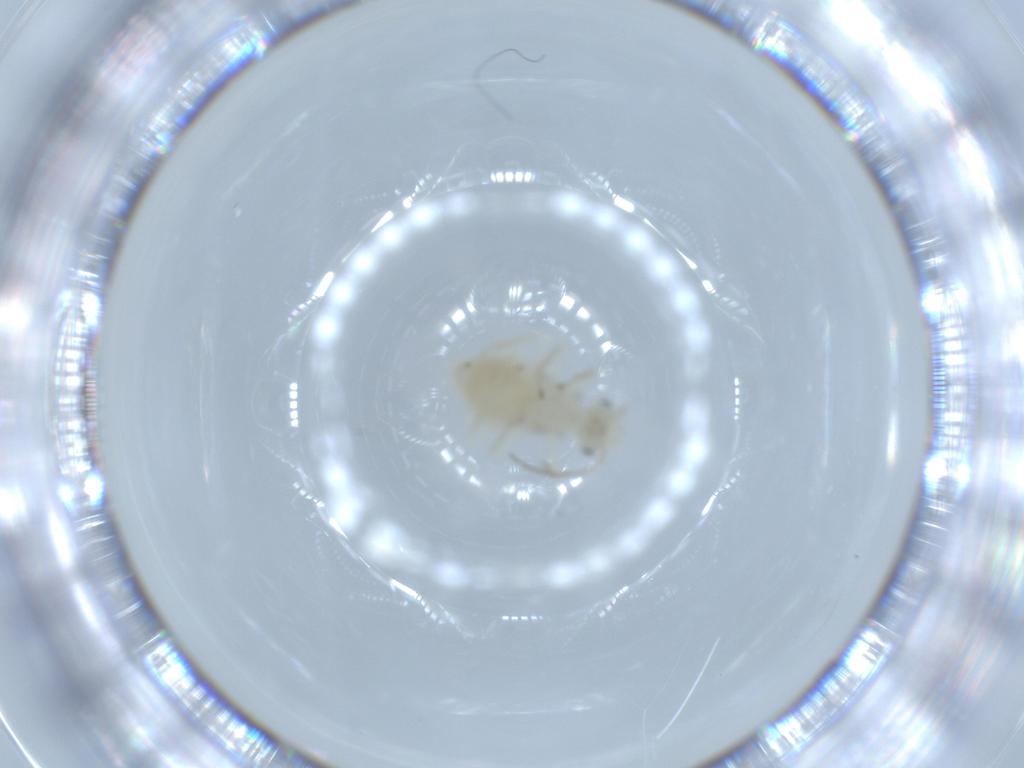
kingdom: Animalia
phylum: Arthropoda
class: Insecta
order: Psocodea
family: Caeciliusidae
